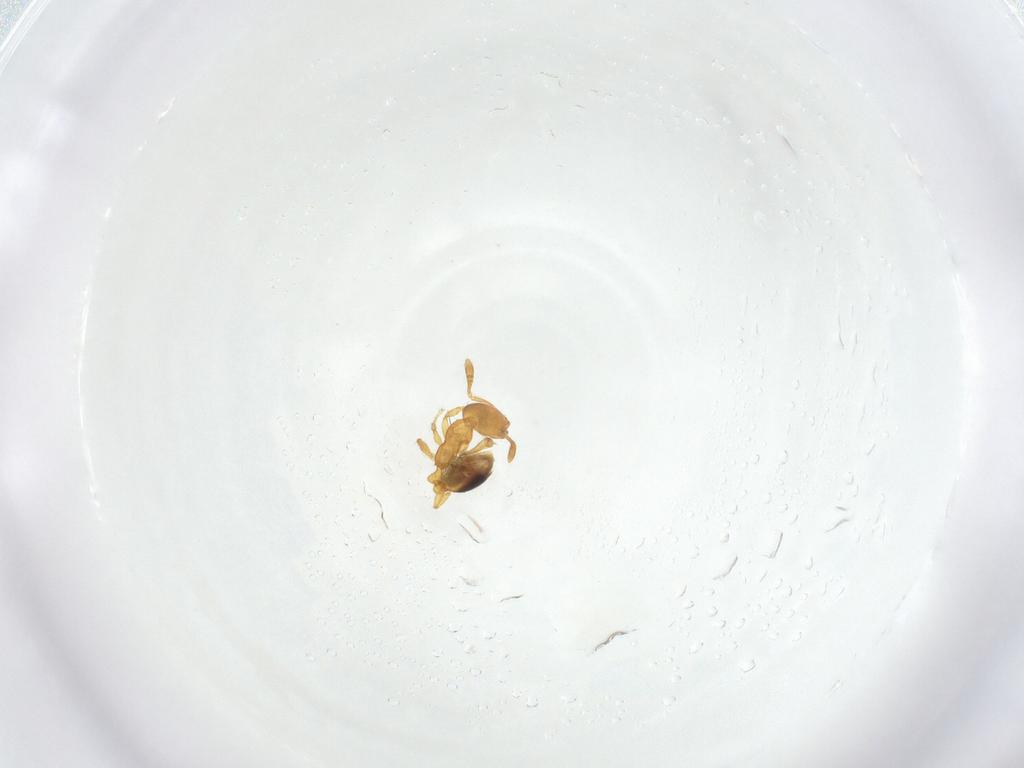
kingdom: Animalia
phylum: Arthropoda
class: Insecta
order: Hymenoptera
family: Formicidae
